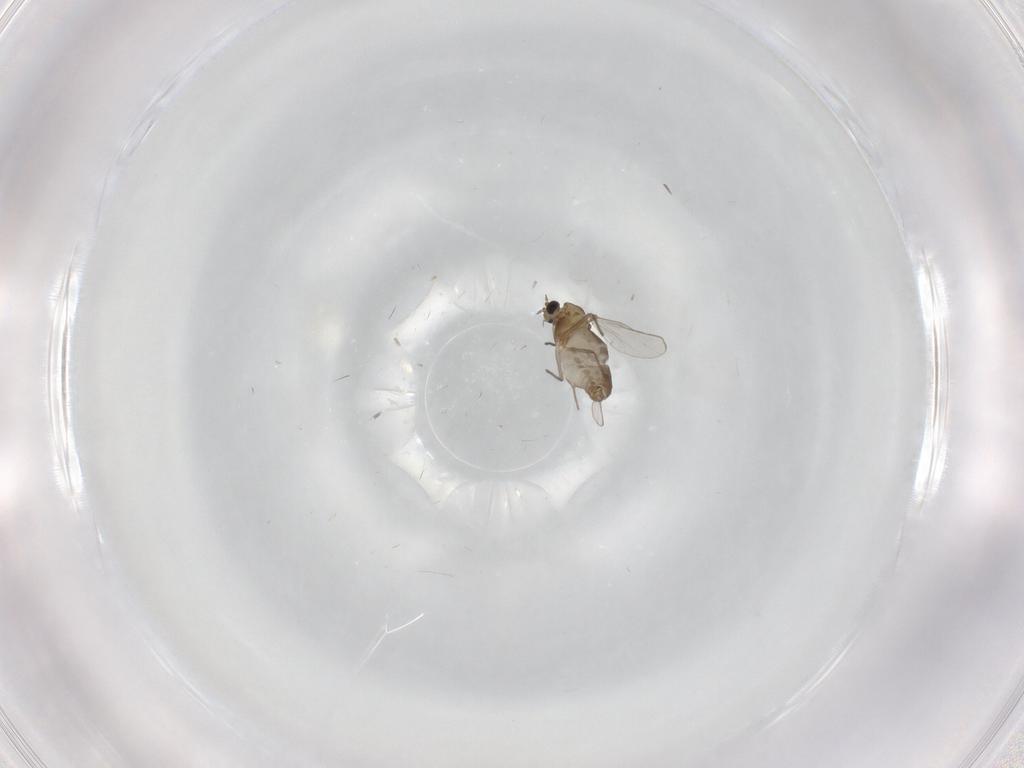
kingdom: Animalia
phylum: Arthropoda
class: Insecta
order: Diptera
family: Chironomidae
